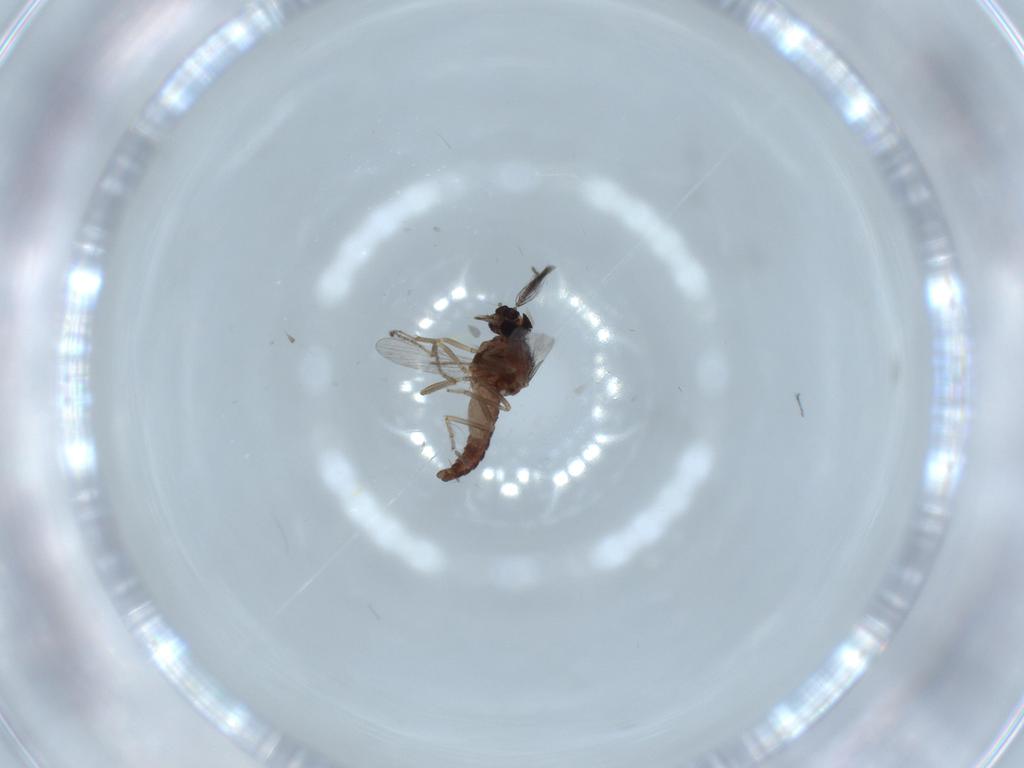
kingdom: Animalia
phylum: Arthropoda
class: Insecta
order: Diptera
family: Ceratopogonidae
